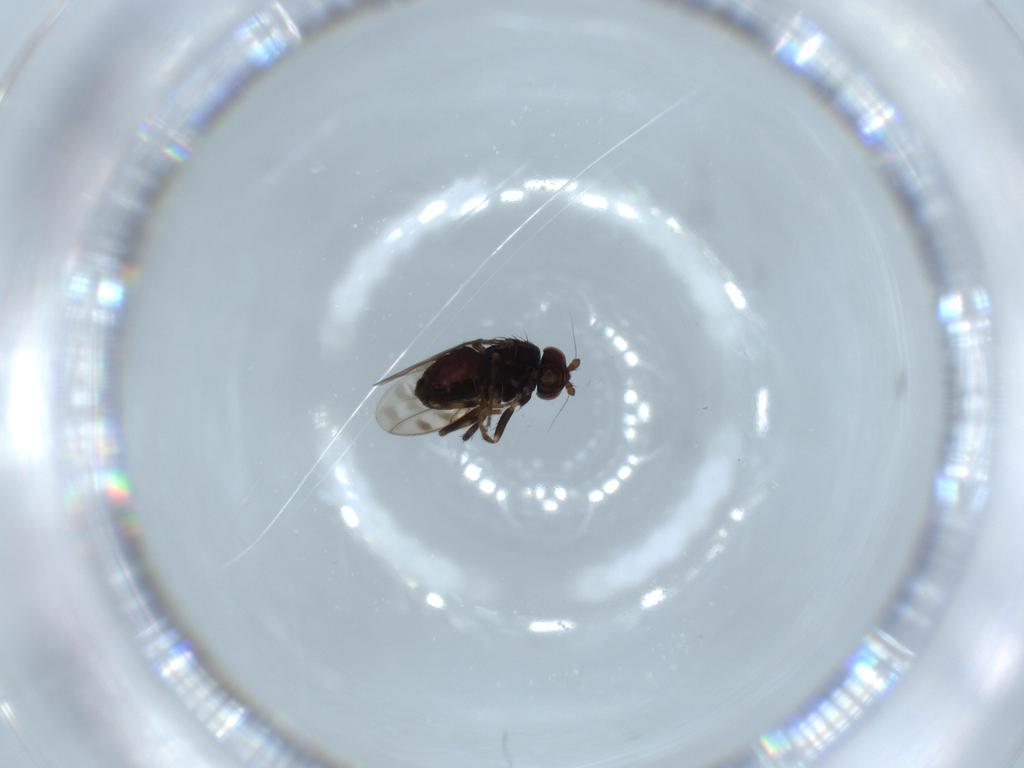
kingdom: Animalia
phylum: Arthropoda
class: Insecta
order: Diptera
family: Sphaeroceridae
